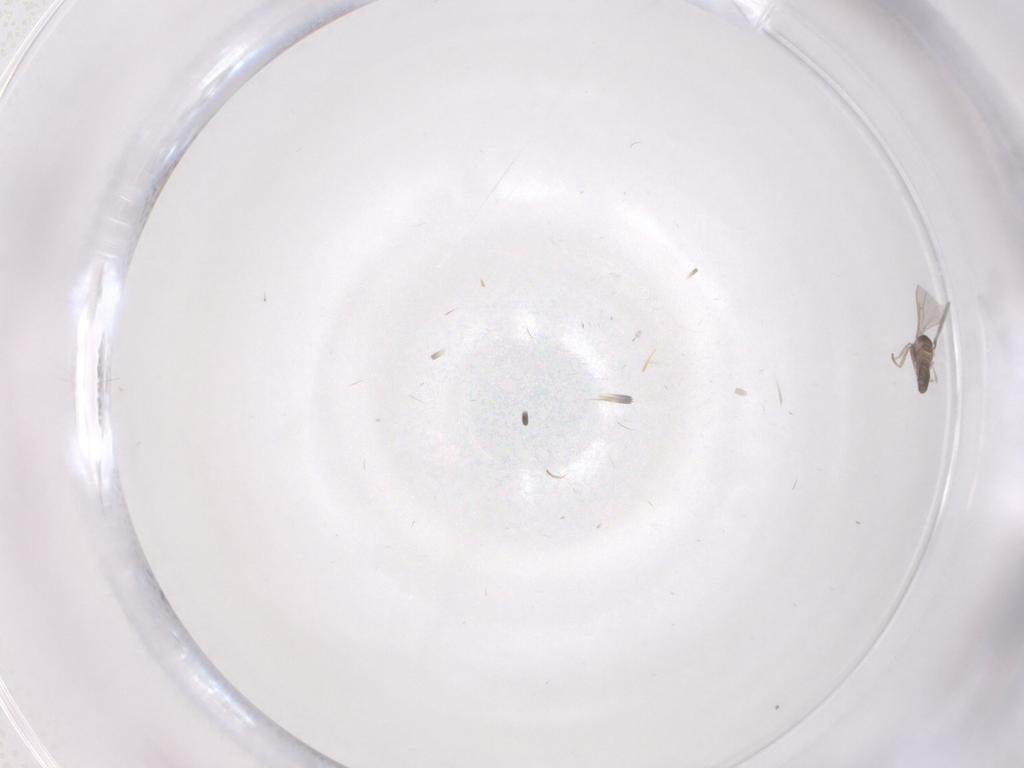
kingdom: Animalia
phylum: Arthropoda
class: Insecta
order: Diptera
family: Cecidomyiidae
